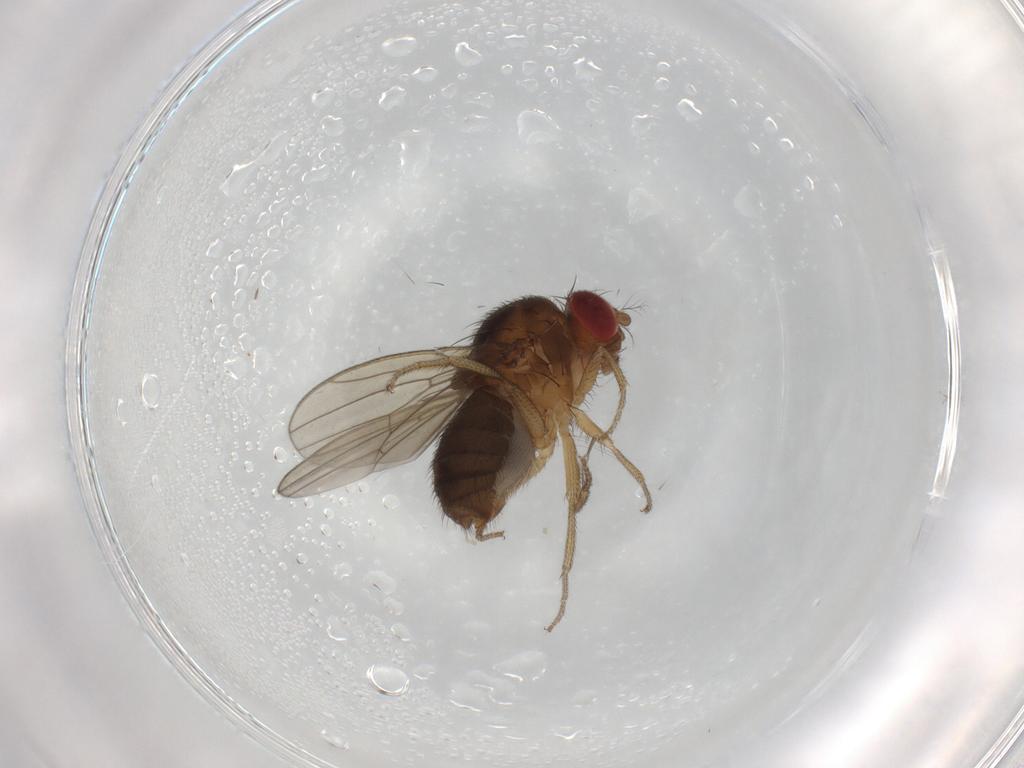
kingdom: Animalia
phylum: Arthropoda
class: Insecta
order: Diptera
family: Drosophilidae
